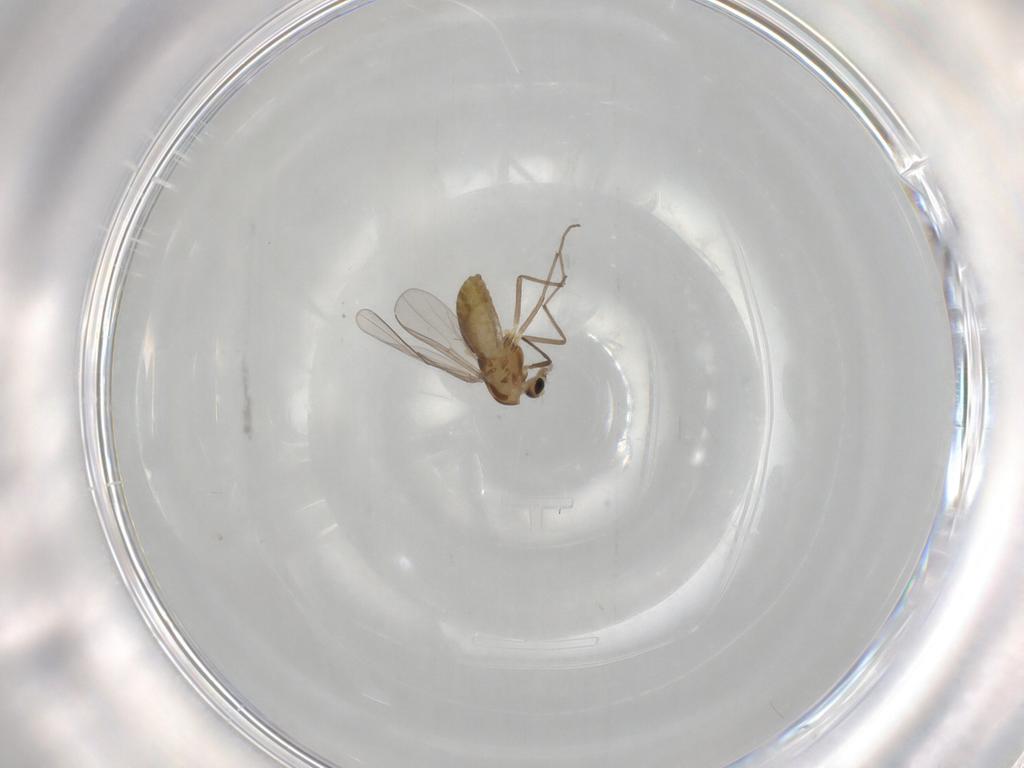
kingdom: Animalia
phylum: Arthropoda
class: Insecta
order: Diptera
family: Chironomidae
